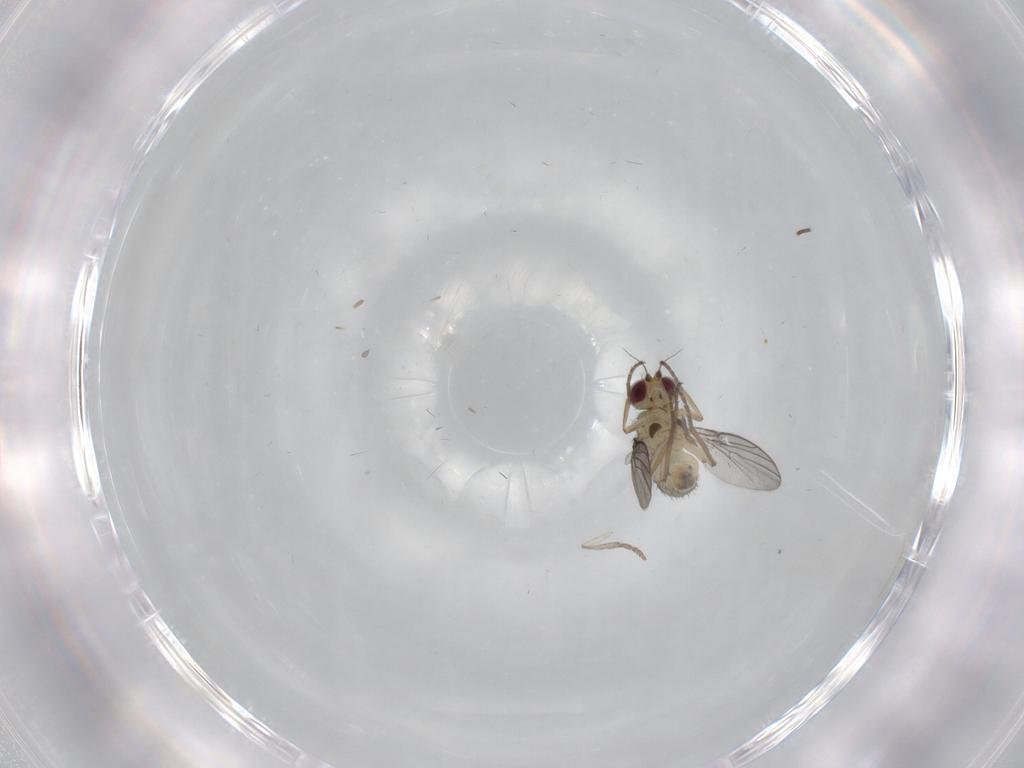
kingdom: Animalia
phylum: Arthropoda
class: Insecta
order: Diptera
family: Agromyzidae
